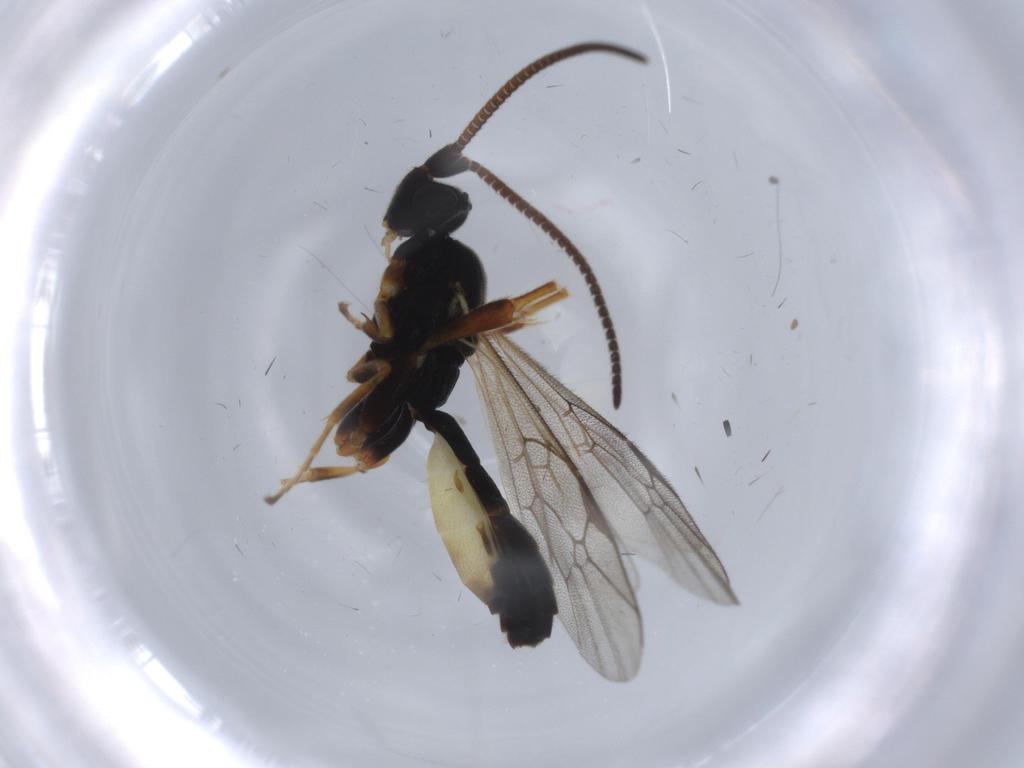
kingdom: Animalia
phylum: Arthropoda
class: Insecta
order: Hymenoptera
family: Ichneumonidae
